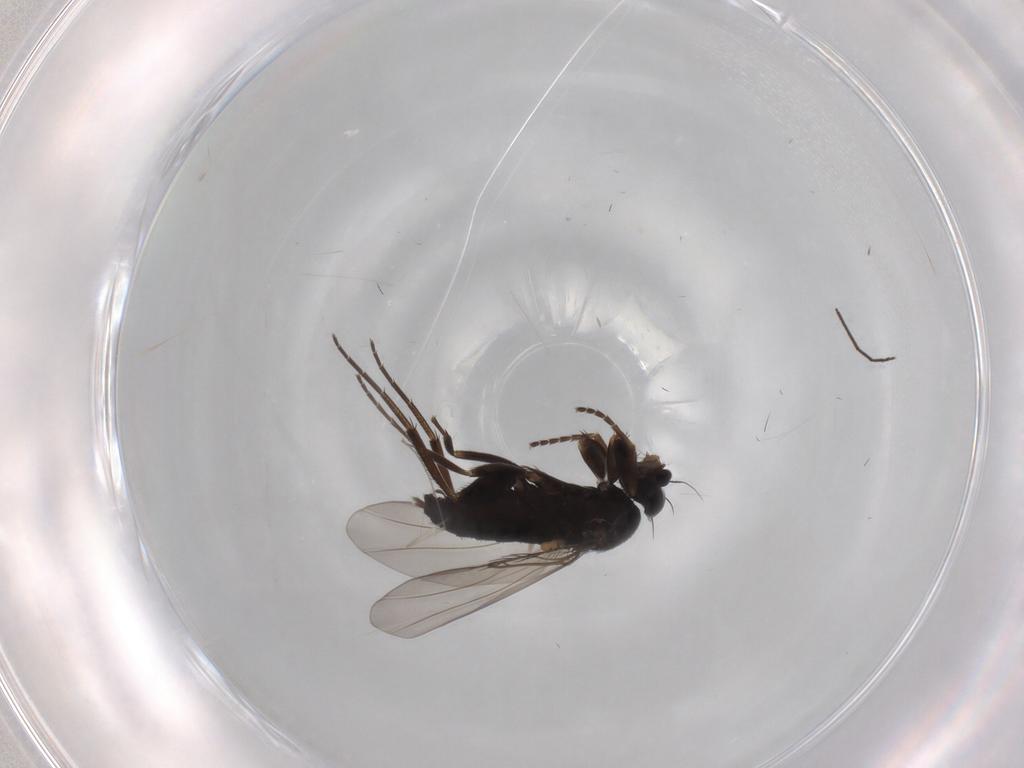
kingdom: Animalia
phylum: Arthropoda
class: Insecta
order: Diptera
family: Phoridae
